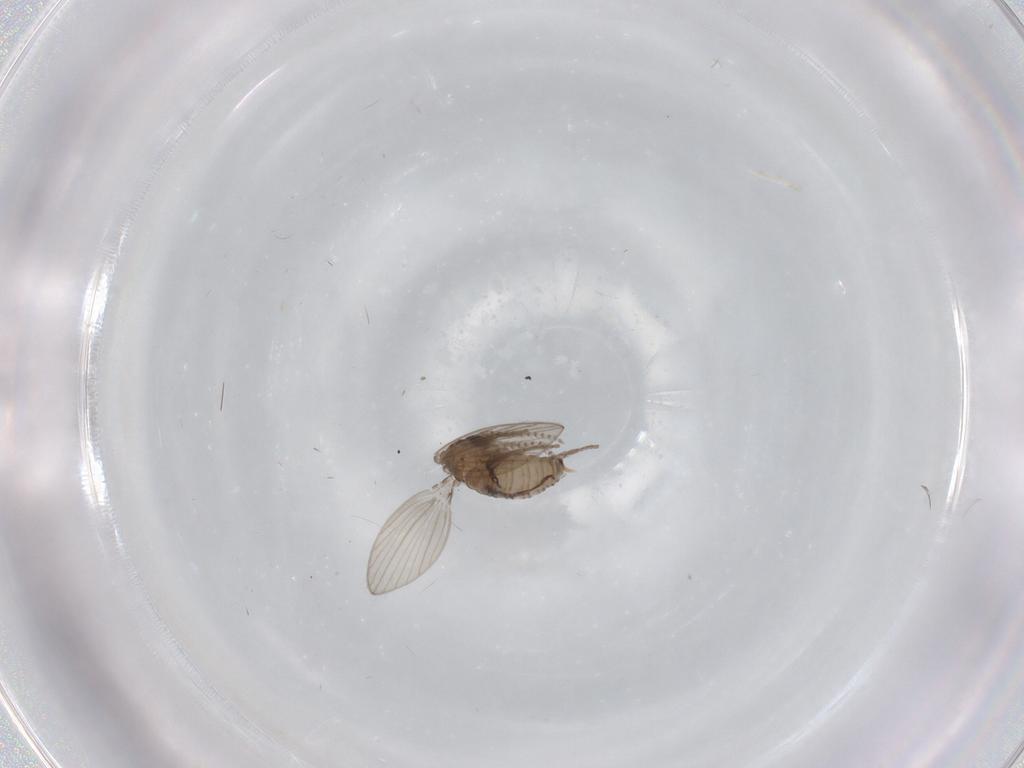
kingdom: Animalia
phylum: Arthropoda
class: Insecta
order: Diptera
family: Psychodidae
